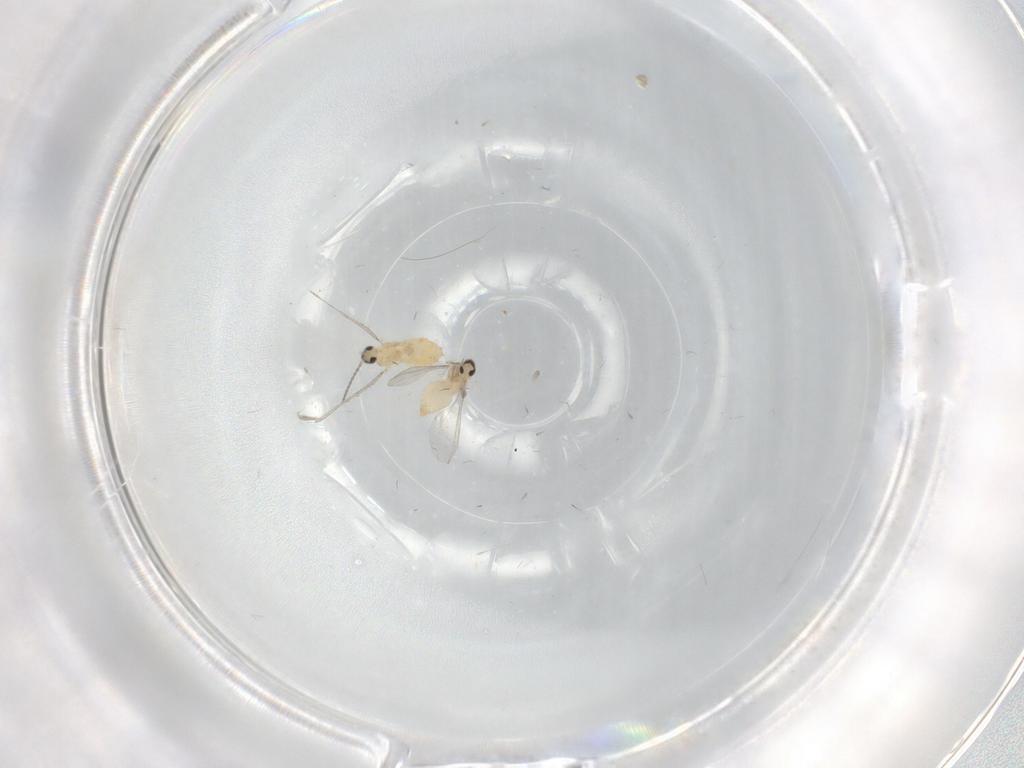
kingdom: Animalia
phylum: Arthropoda
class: Insecta
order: Diptera
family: Cecidomyiidae
